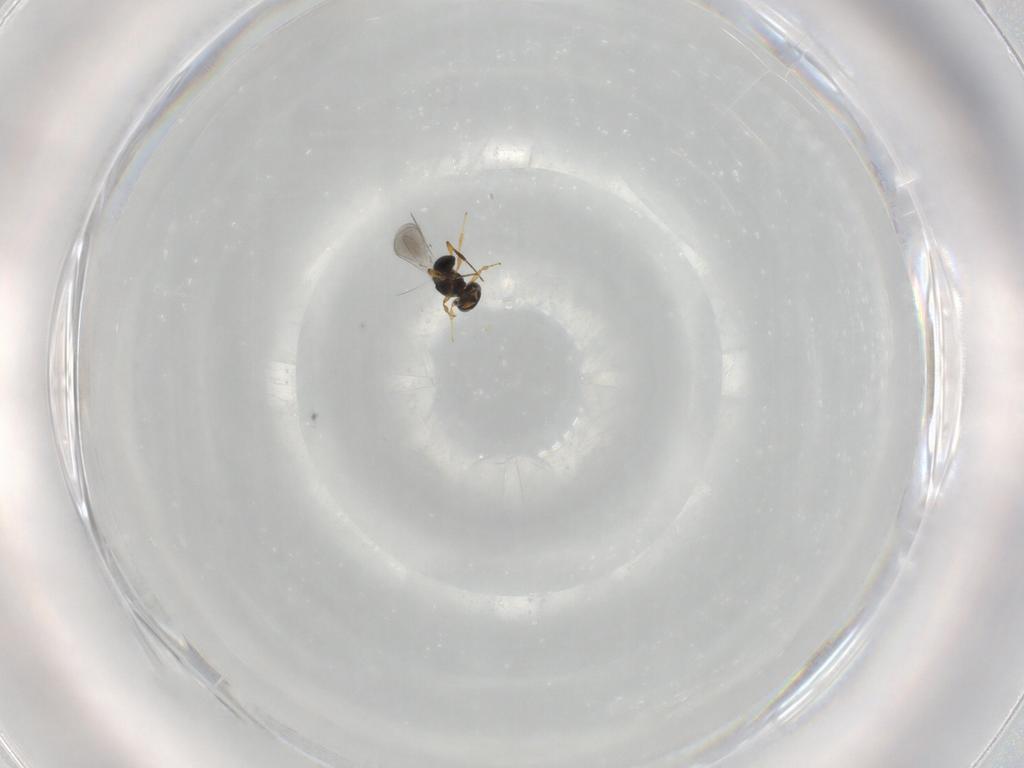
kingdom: Animalia
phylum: Arthropoda
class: Insecta
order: Hymenoptera
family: Platygastridae
